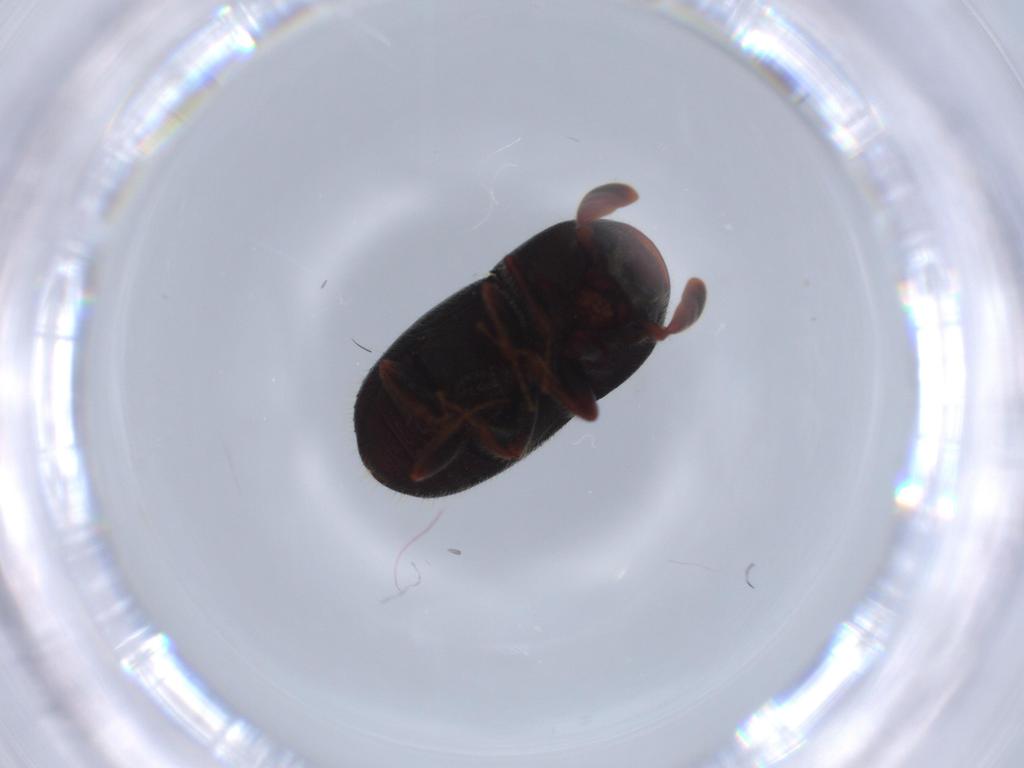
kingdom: Animalia
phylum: Arthropoda
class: Insecta
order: Coleoptera
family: Curculionidae
